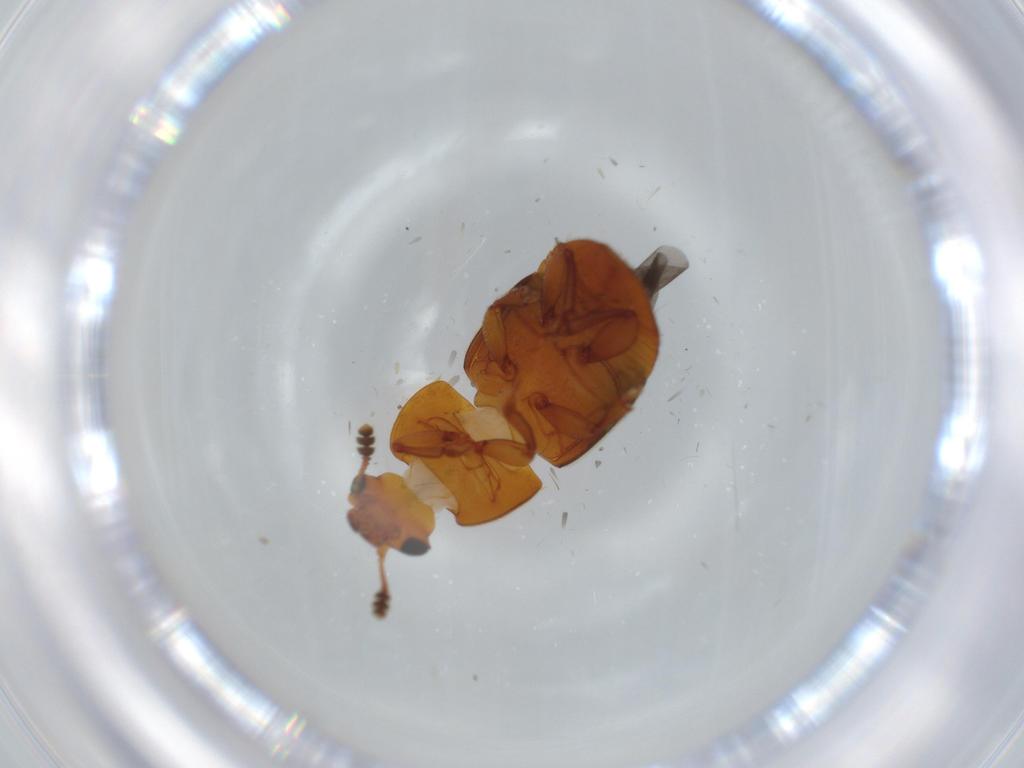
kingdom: Animalia
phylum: Arthropoda
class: Insecta
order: Coleoptera
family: Nitidulidae
